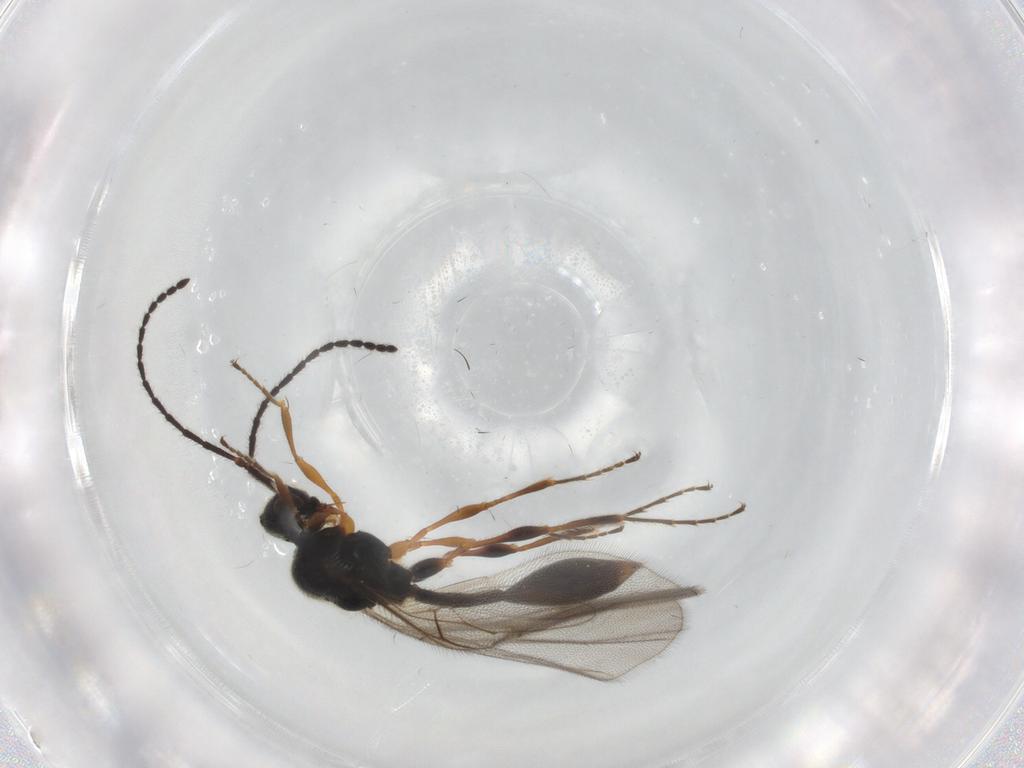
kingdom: Animalia
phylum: Arthropoda
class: Insecta
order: Hymenoptera
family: Diapriidae
